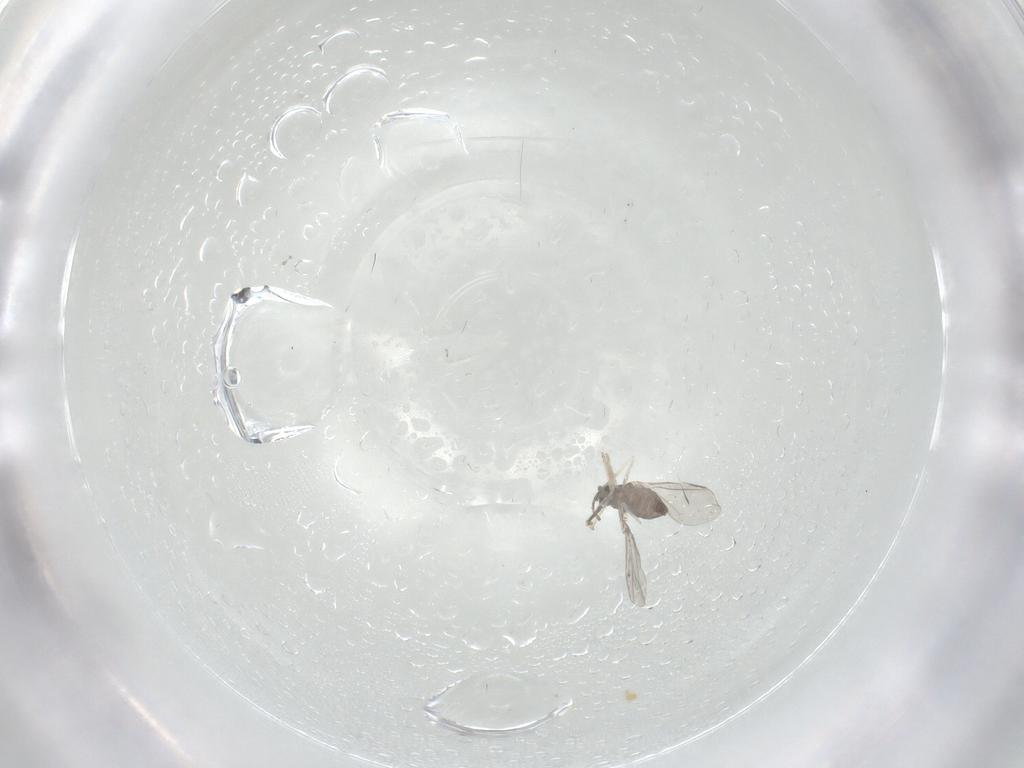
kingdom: Animalia
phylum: Arthropoda
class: Insecta
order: Diptera
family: Cecidomyiidae
